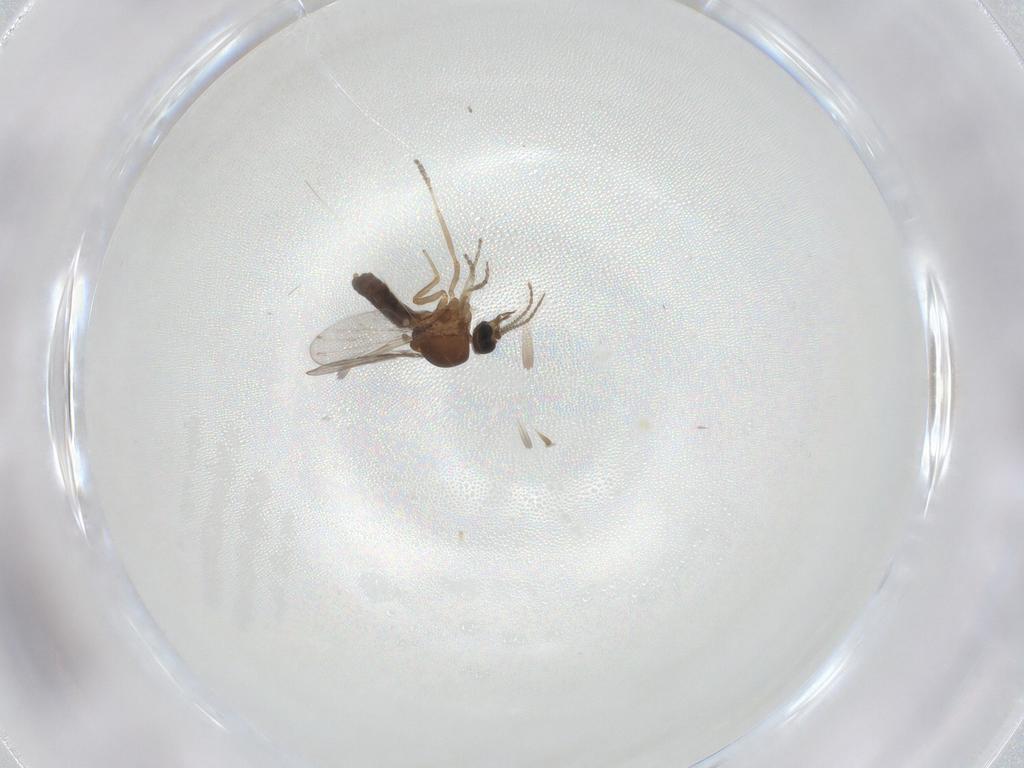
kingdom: Animalia
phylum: Arthropoda
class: Insecta
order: Diptera
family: Ceratopogonidae
